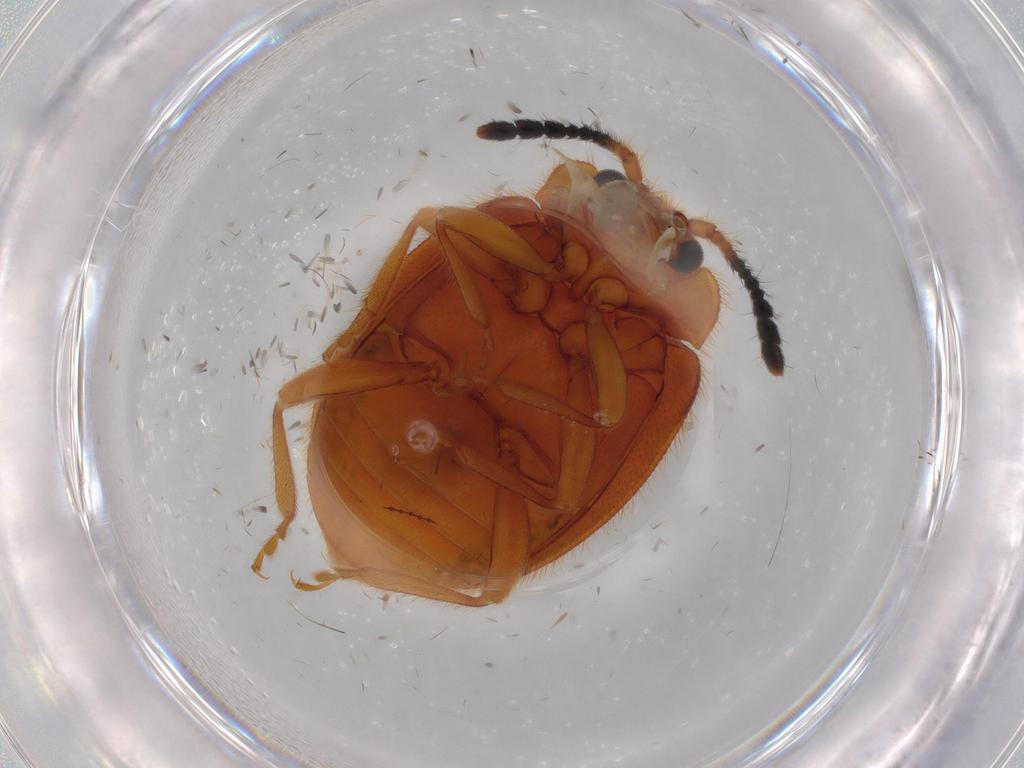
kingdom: Animalia
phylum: Arthropoda
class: Insecta
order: Coleoptera
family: Endomychidae
